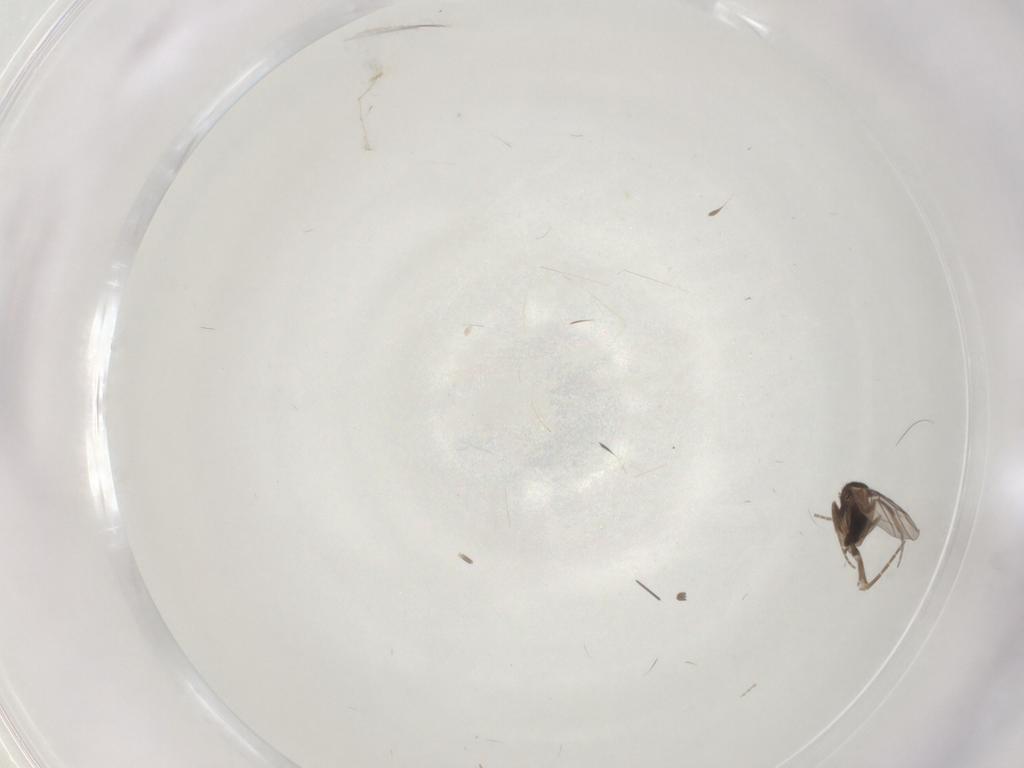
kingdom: Animalia
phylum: Arthropoda
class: Insecta
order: Diptera
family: Cecidomyiidae
